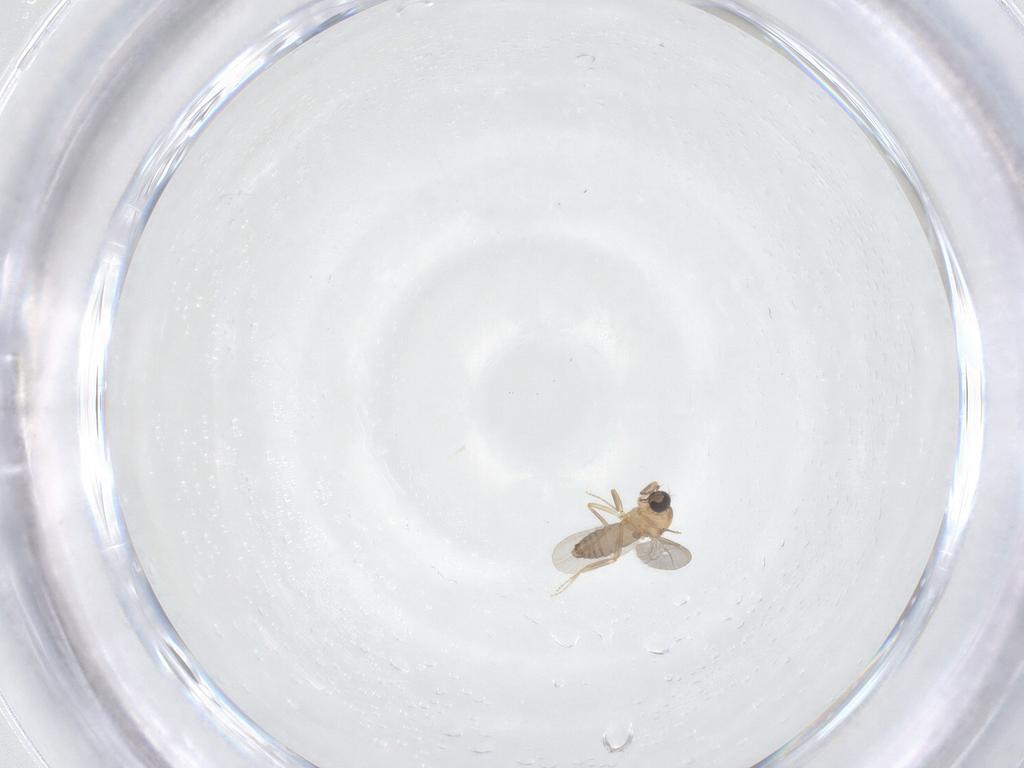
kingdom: Animalia
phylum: Arthropoda
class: Insecta
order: Diptera
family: Ceratopogonidae
